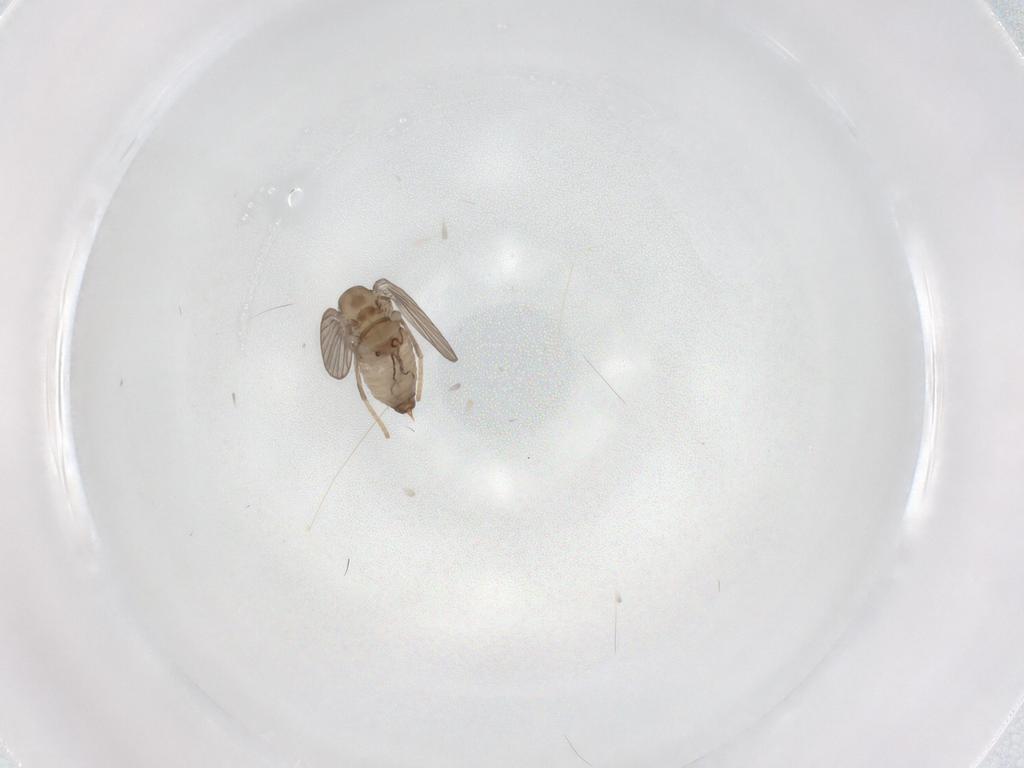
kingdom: Animalia
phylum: Arthropoda
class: Insecta
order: Diptera
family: Psychodidae
